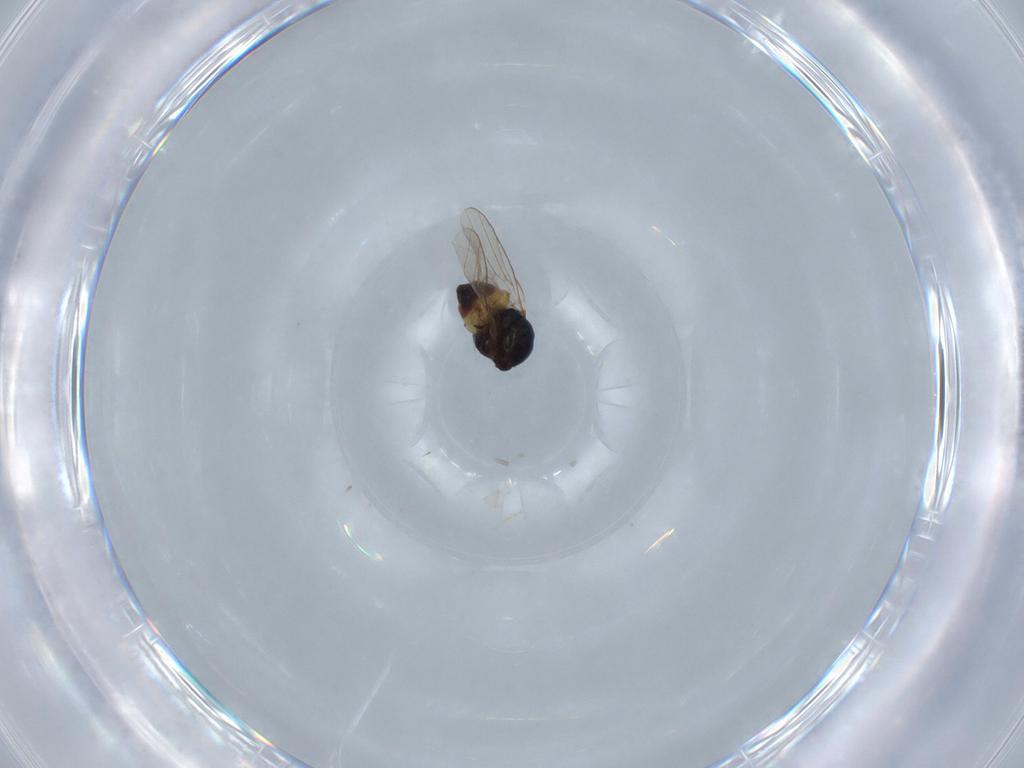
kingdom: Animalia
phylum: Arthropoda
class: Insecta
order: Diptera
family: Chloropidae
